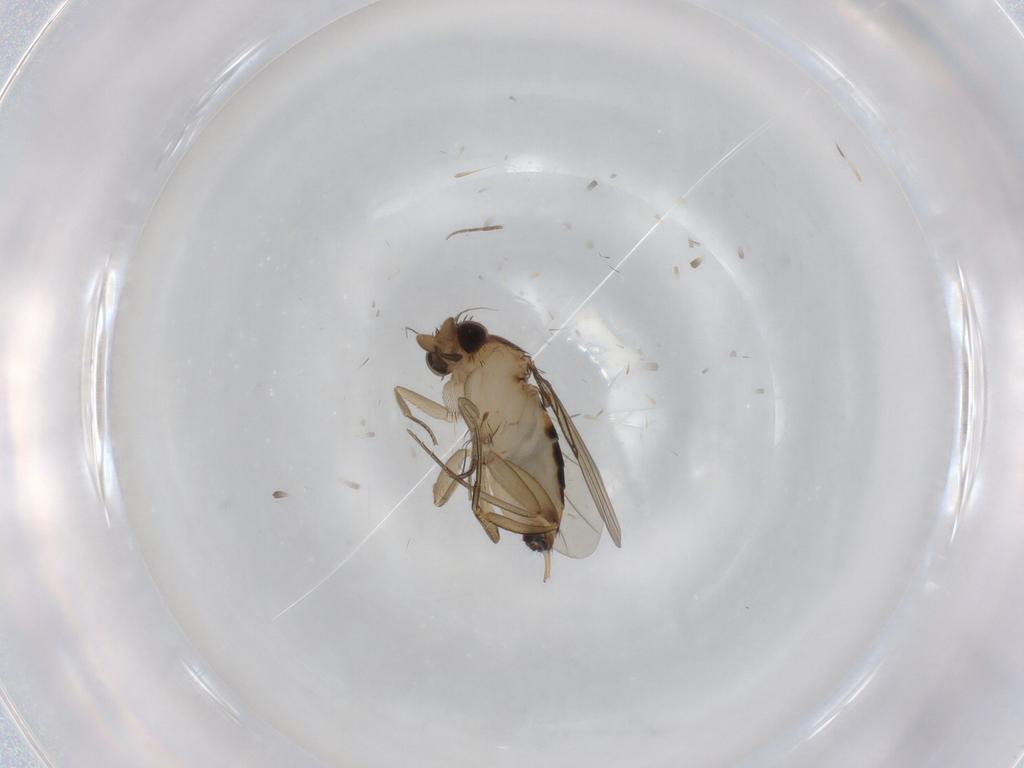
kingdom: Animalia
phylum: Arthropoda
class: Insecta
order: Diptera
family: Phoridae
